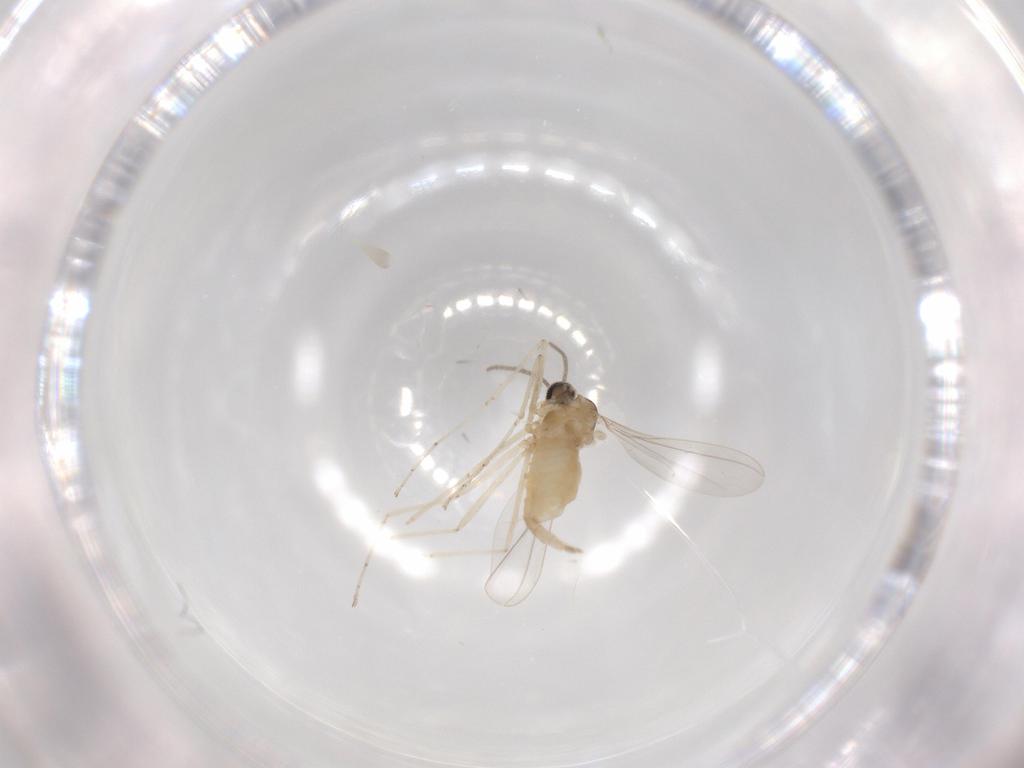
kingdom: Animalia
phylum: Arthropoda
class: Insecta
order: Diptera
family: Cecidomyiidae
